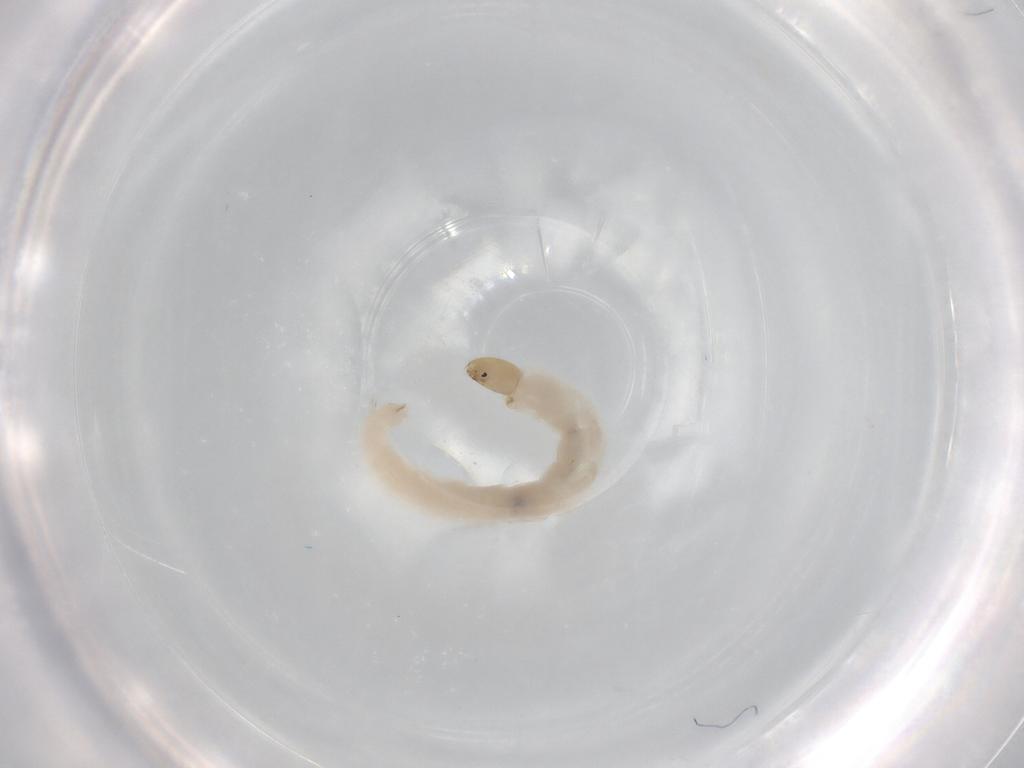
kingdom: Animalia
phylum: Arthropoda
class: Insecta
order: Diptera
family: Chironomidae
